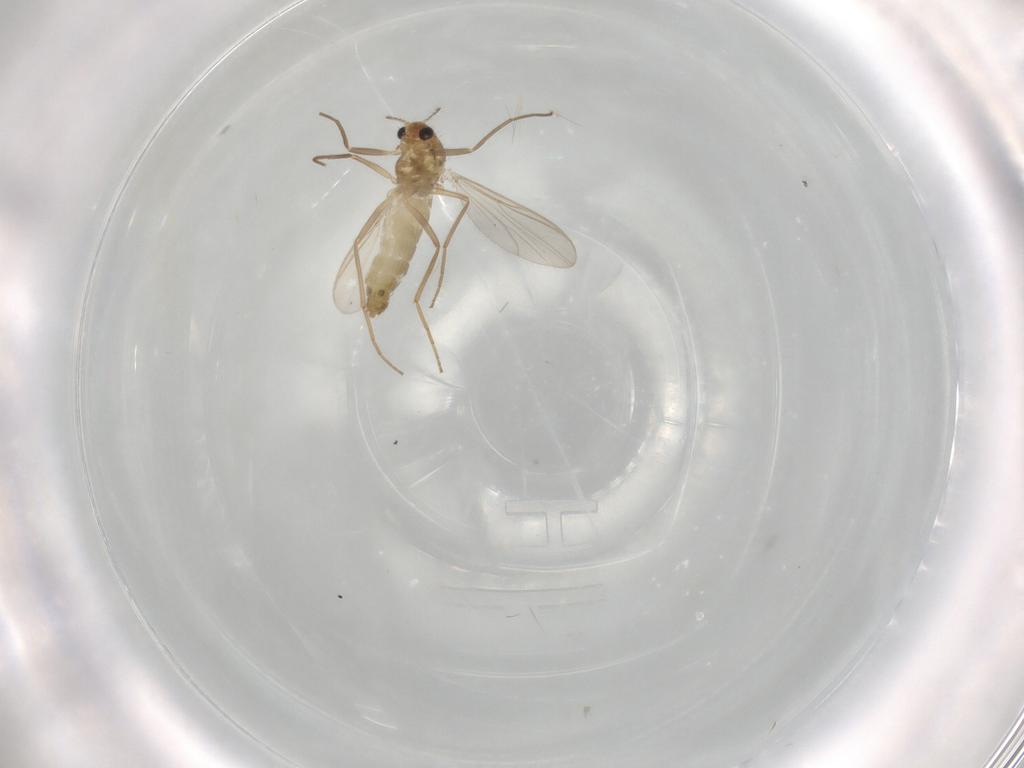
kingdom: Animalia
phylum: Arthropoda
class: Insecta
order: Diptera
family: Chironomidae
